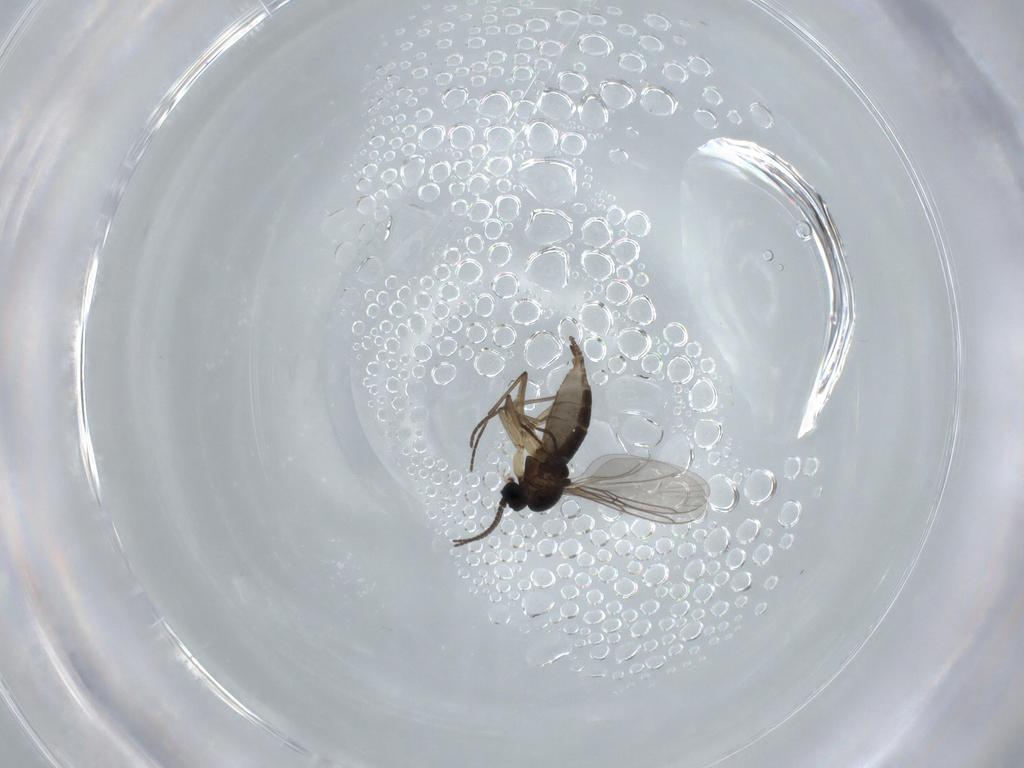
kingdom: Animalia
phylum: Arthropoda
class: Insecta
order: Diptera
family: Sciaridae
